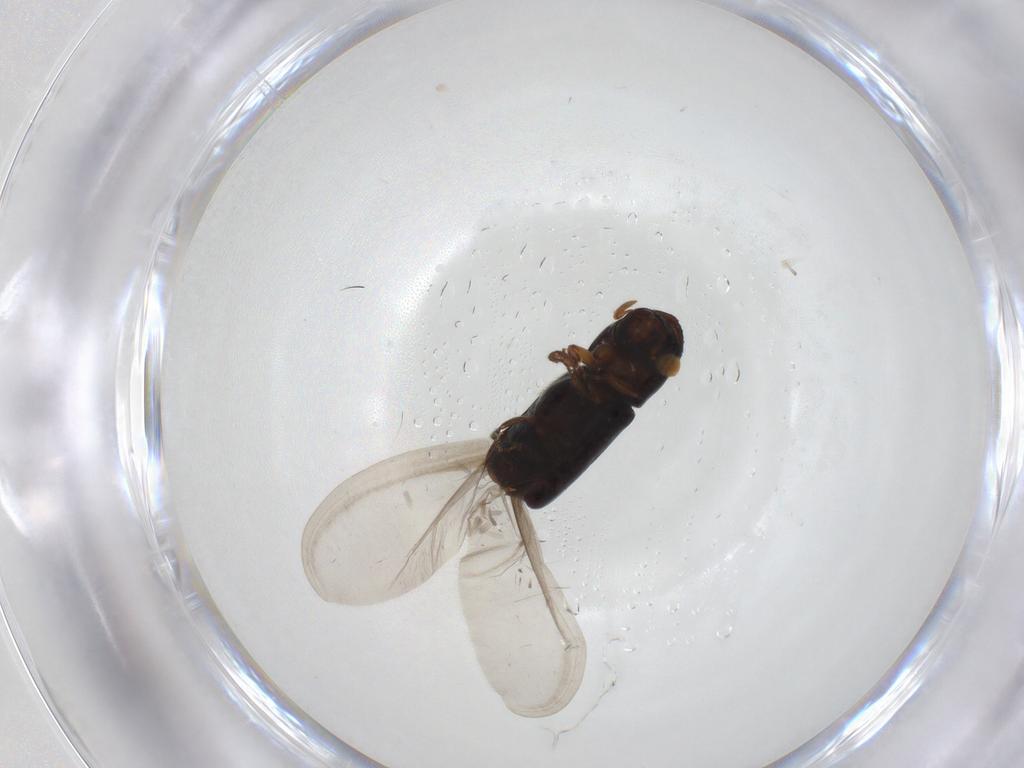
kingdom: Animalia
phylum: Arthropoda
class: Insecta
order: Coleoptera
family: Curculionidae
